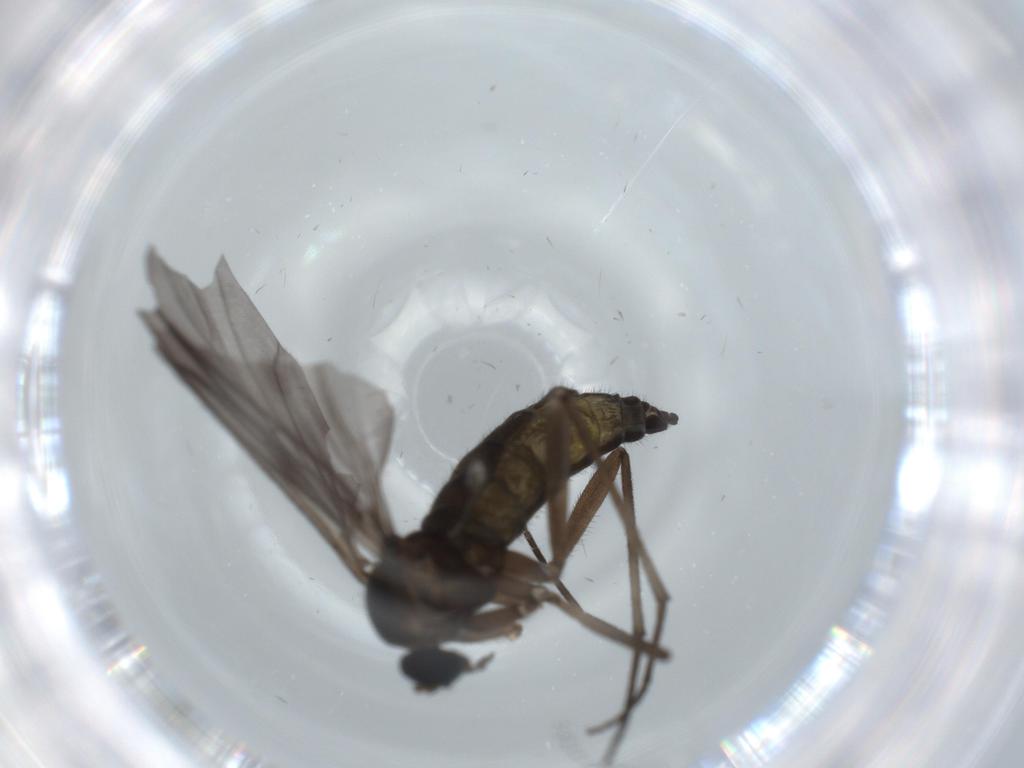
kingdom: Animalia
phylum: Arthropoda
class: Insecta
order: Diptera
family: Sciaridae
